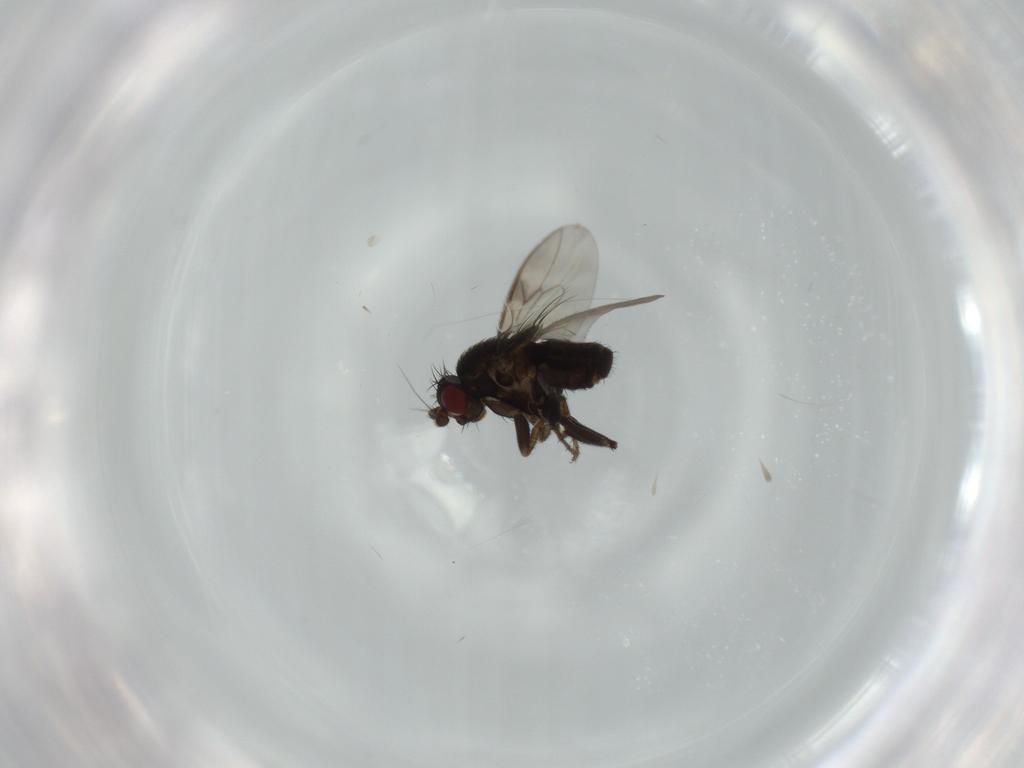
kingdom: Animalia
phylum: Arthropoda
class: Insecta
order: Diptera
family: Sphaeroceridae
